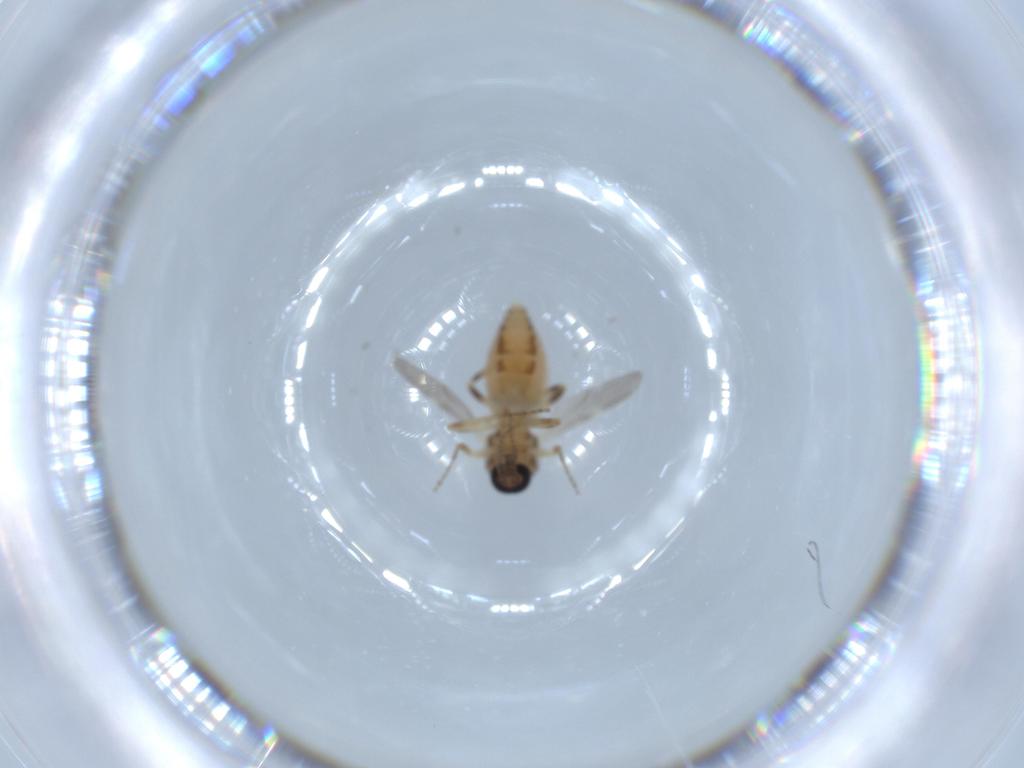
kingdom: Animalia
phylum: Arthropoda
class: Insecta
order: Diptera
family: Ceratopogonidae
